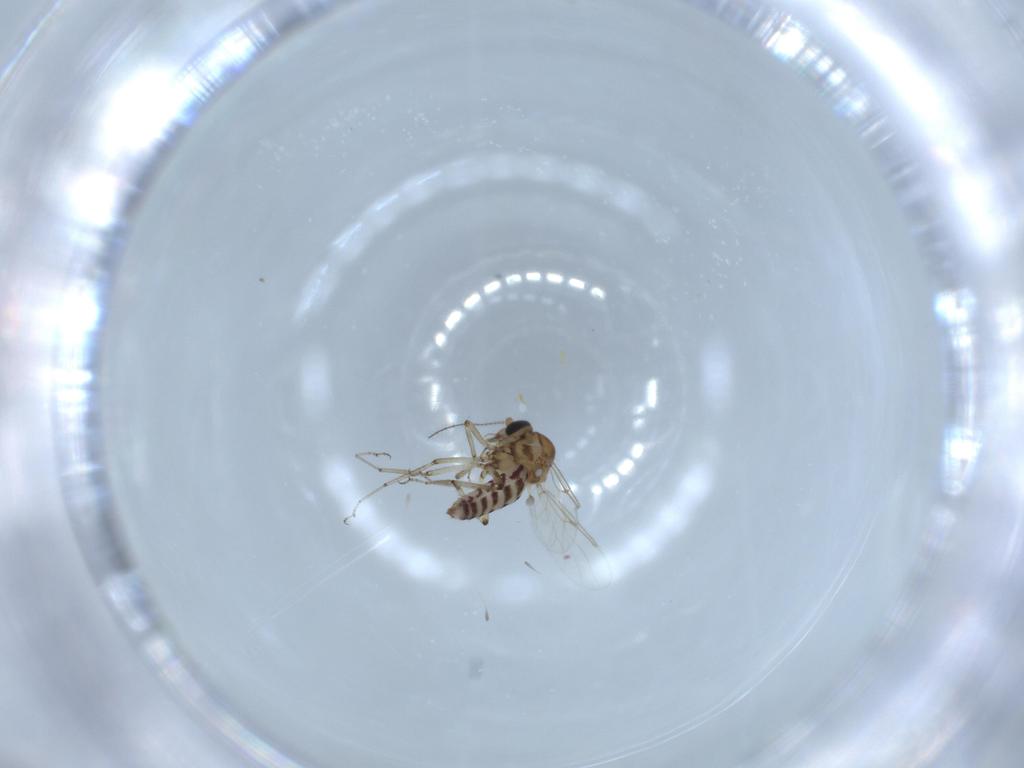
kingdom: Animalia
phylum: Arthropoda
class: Insecta
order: Diptera
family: Ceratopogonidae
